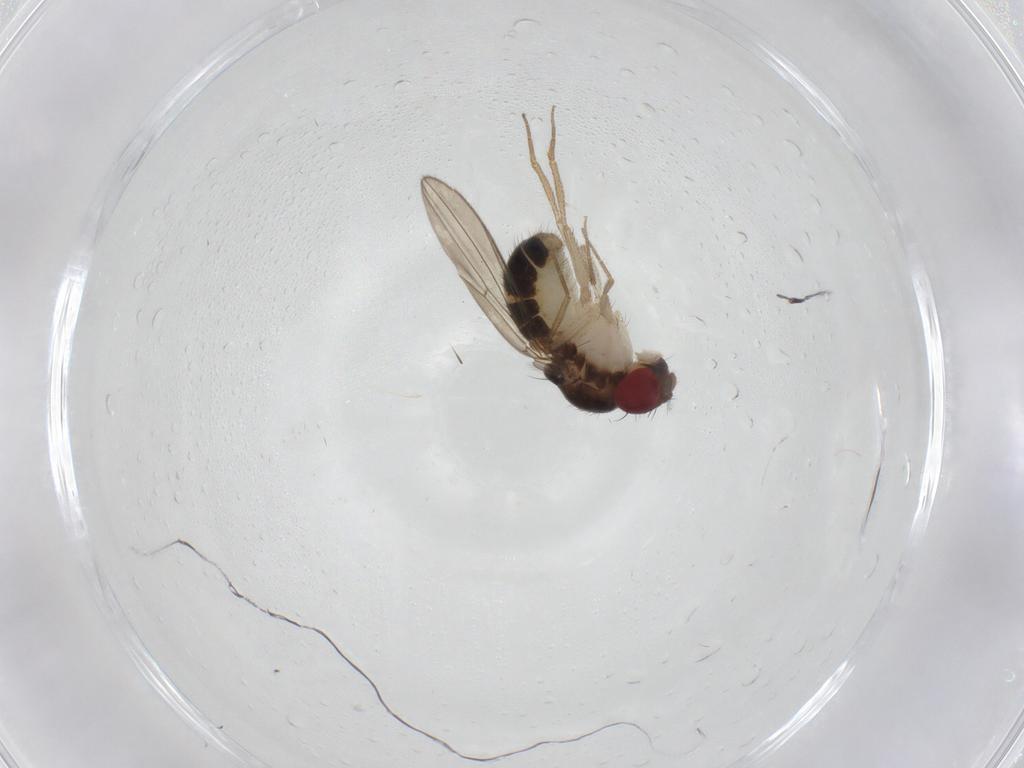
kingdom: Animalia
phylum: Arthropoda
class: Insecta
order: Diptera
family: Drosophilidae
